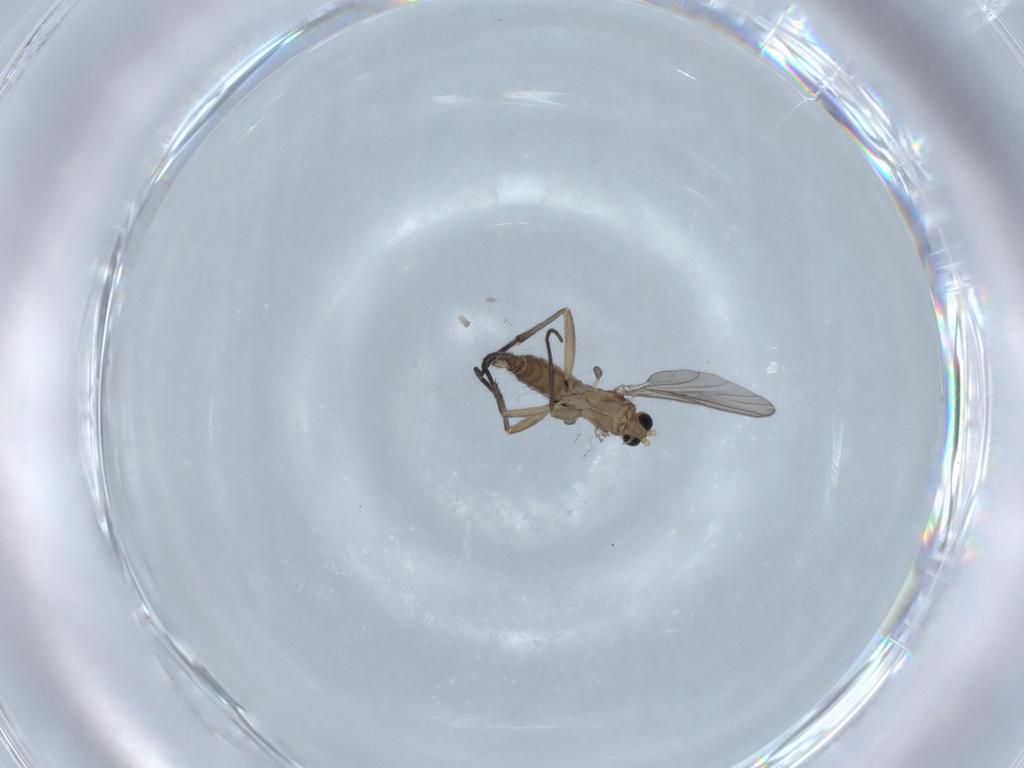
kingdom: Animalia
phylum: Arthropoda
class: Insecta
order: Diptera
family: Sciaridae
